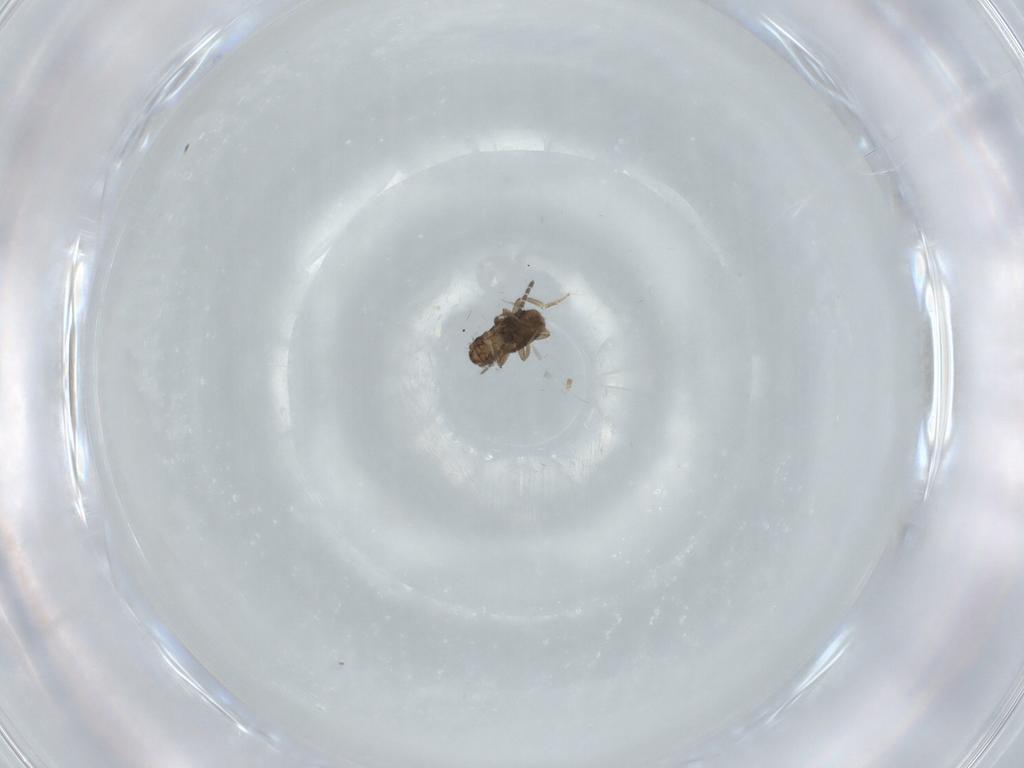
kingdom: Animalia
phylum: Arthropoda
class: Insecta
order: Diptera
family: Sciaridae
